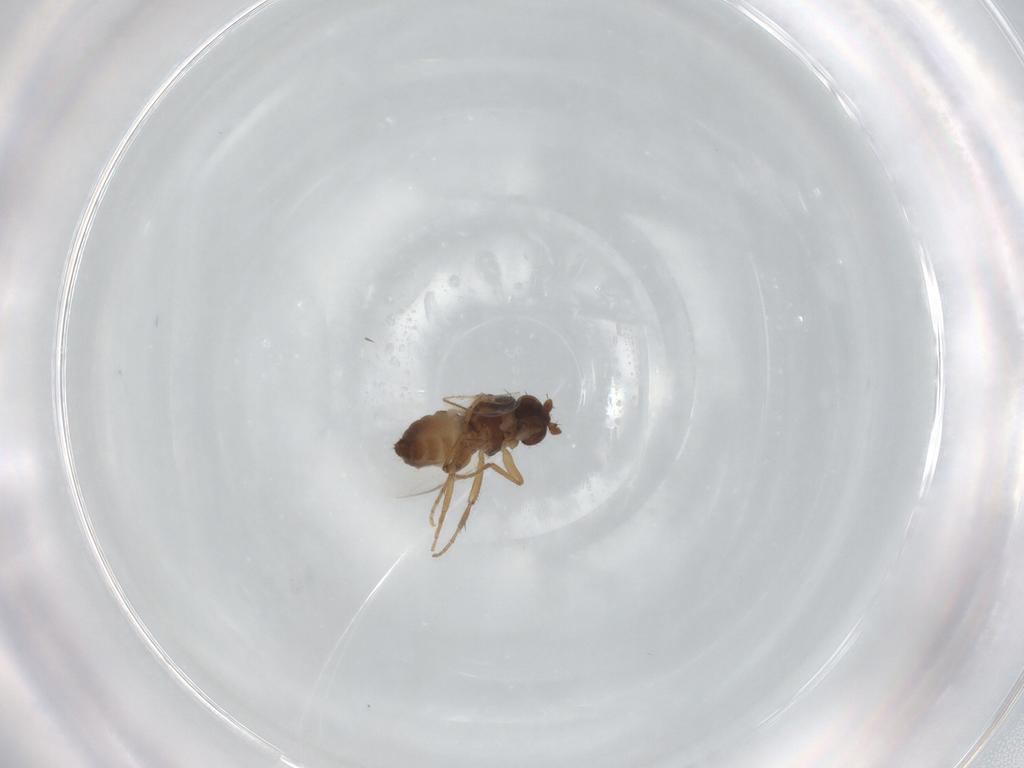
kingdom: Animalia
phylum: Arthropoda
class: Insecta
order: Diptera
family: Sphaeroceridae
